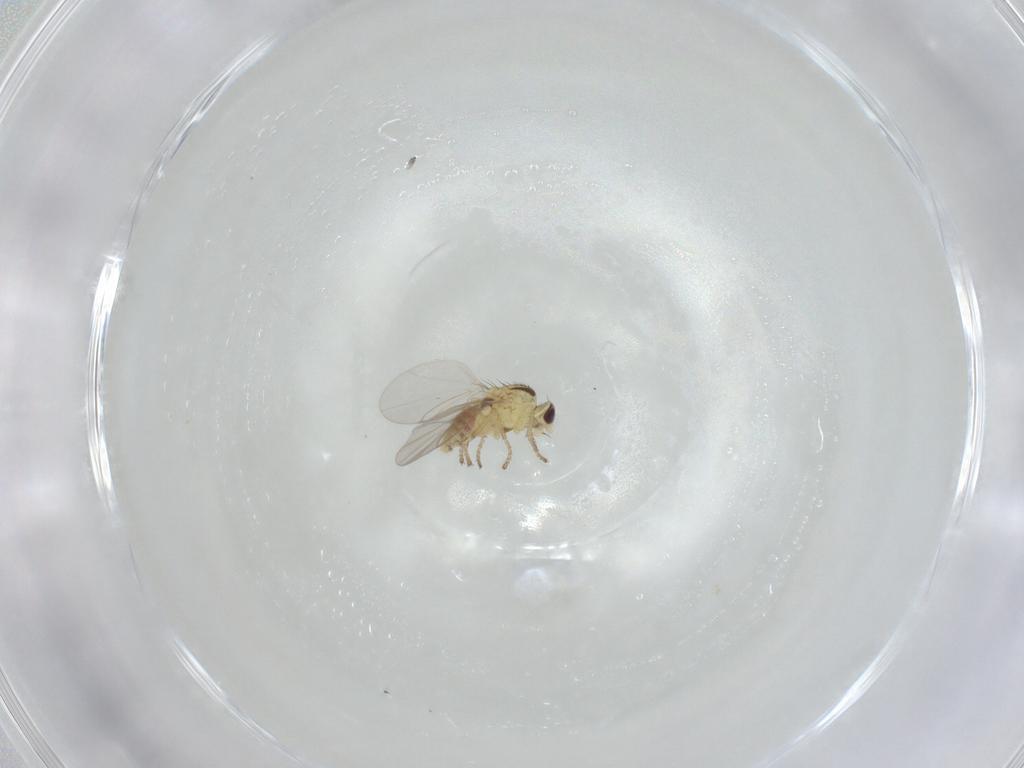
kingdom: Animalia
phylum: Arthropoda
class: Insecta
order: Diptera
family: Agromyzidae
